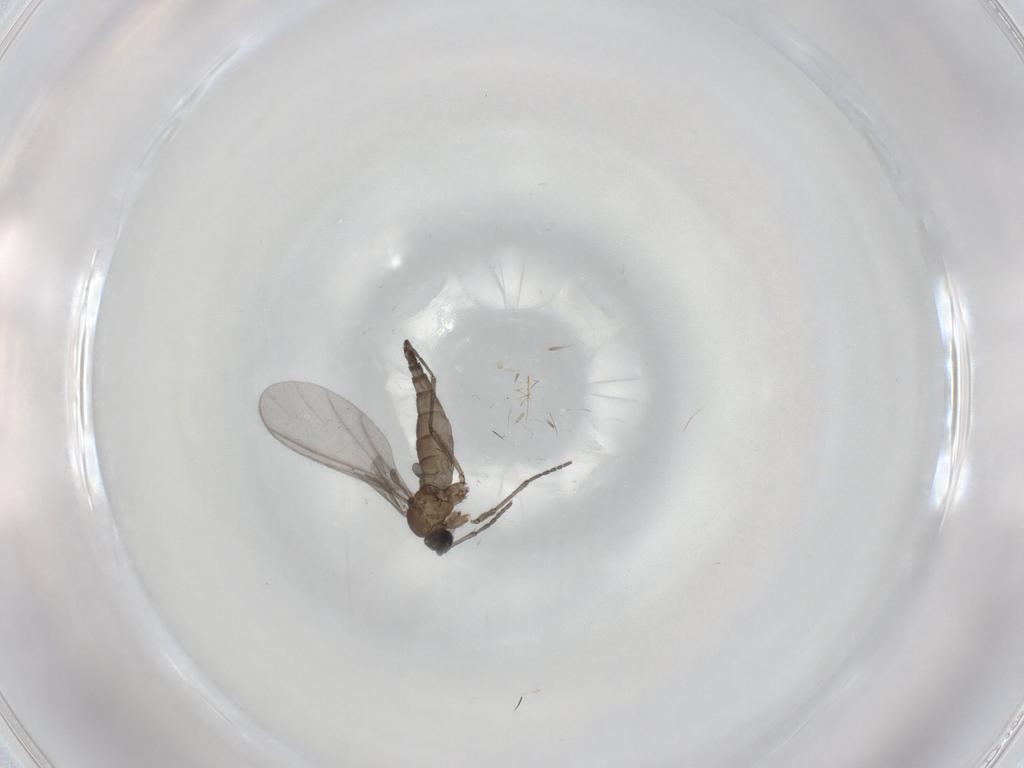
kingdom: Animalia
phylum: Arthropoda
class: Insecta
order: Diptera
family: Sciaridae
